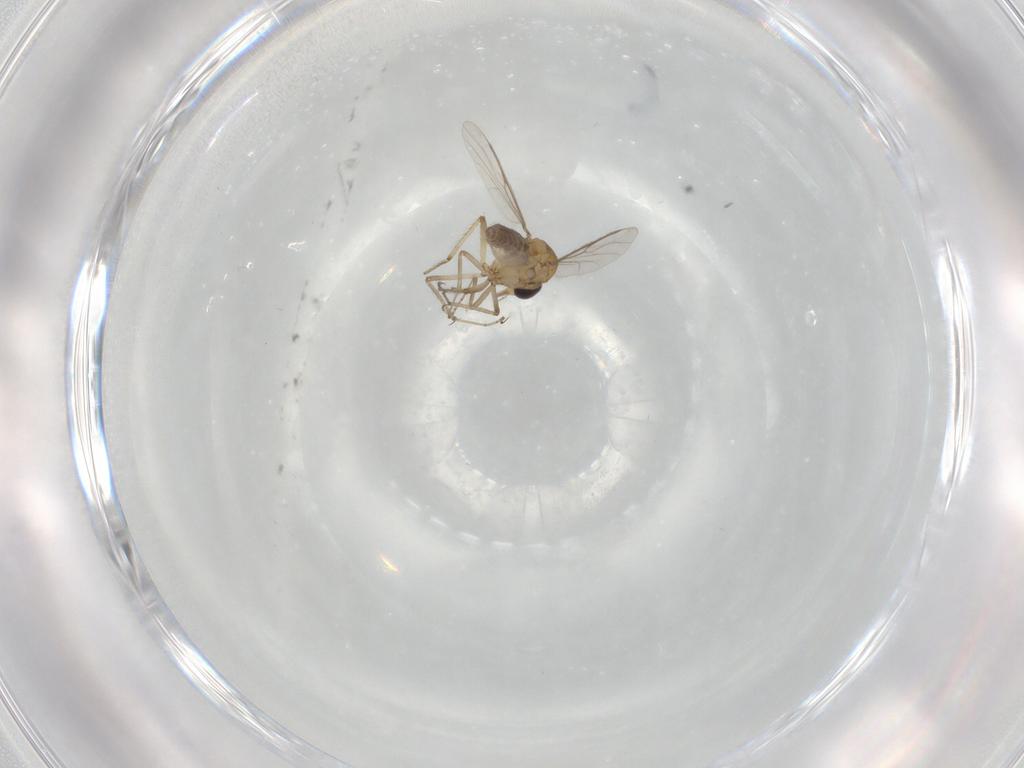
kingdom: Animalia
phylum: Arthropoda
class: Insecta
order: Diptera
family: Ceratopogonidae
